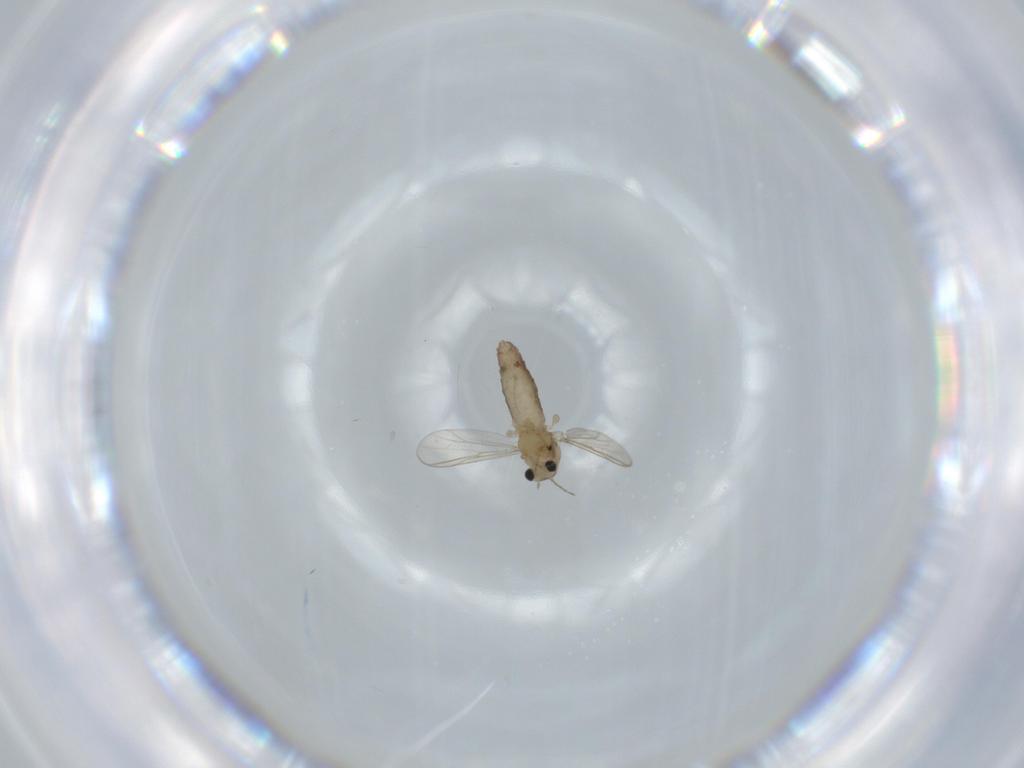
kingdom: Animalia
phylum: Arthropoda
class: Insecta
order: Diptera
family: Chironomidae
